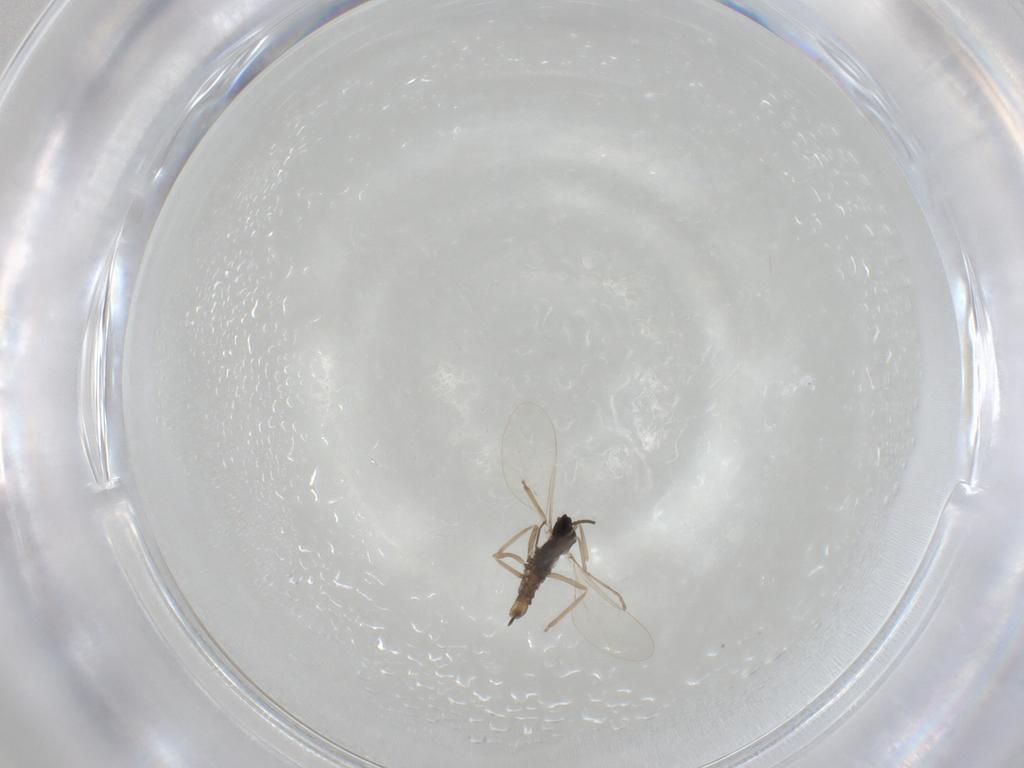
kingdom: Animalia
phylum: Arthropoda
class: Insecta
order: Diptera
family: Cecidomyiidae
